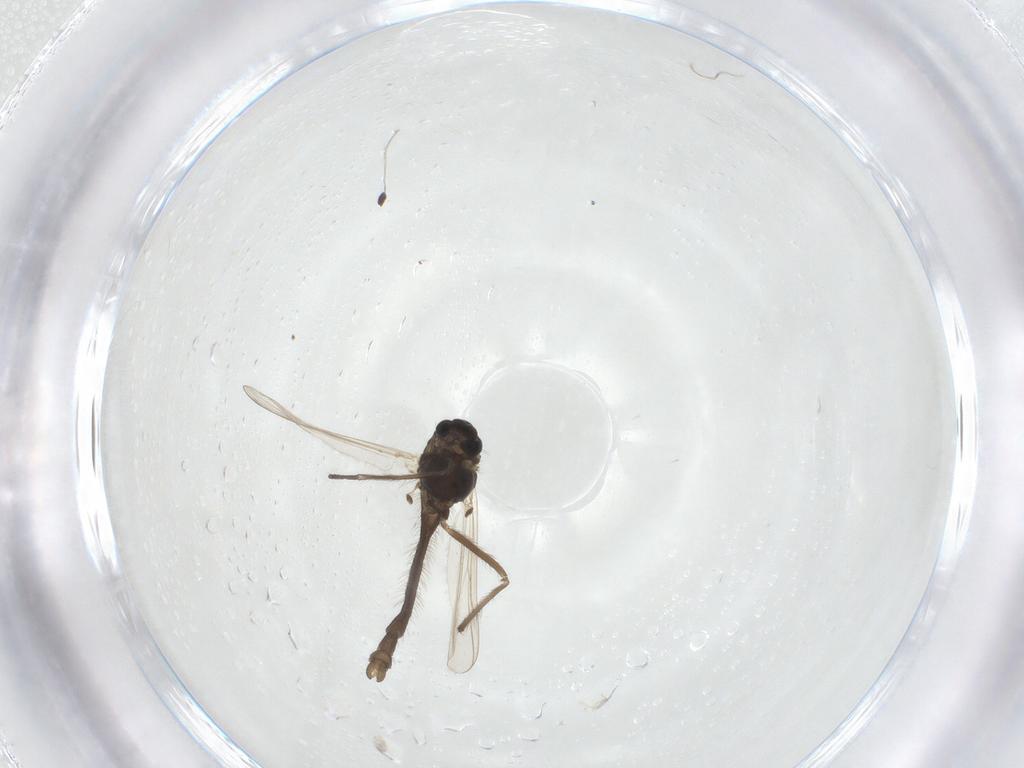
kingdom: Animalia
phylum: Arthropoda
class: Insecta
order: Diptera
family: Chironomidae
